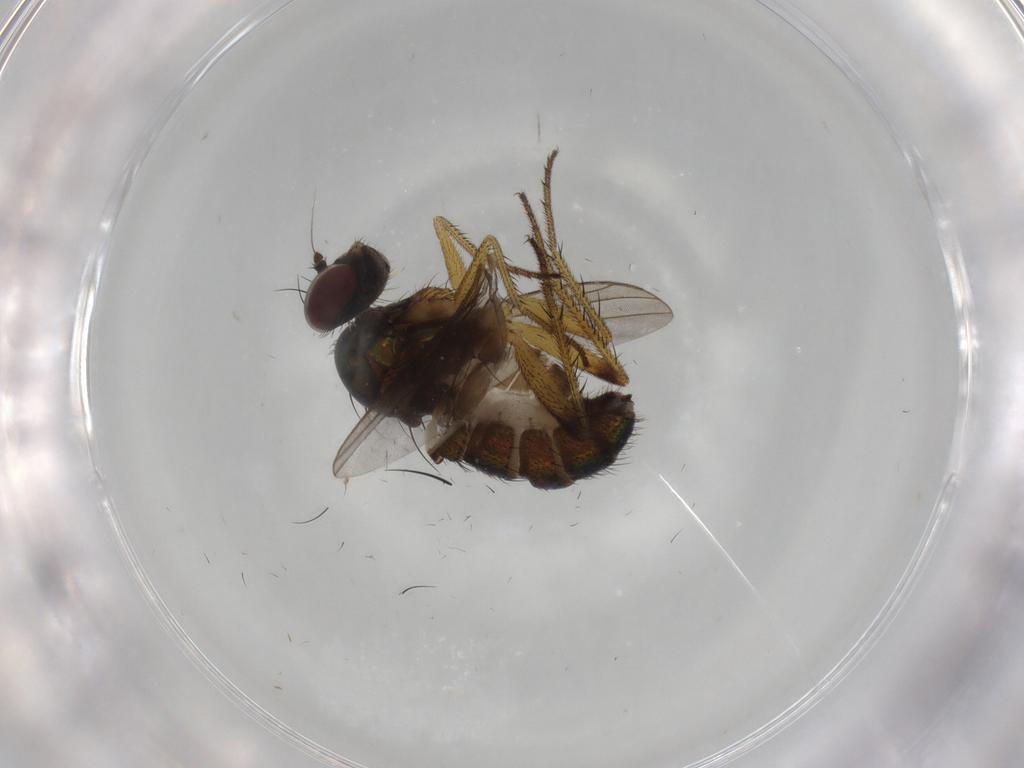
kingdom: Animalia
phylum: Arthropoda
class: Insecta
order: Diptera
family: Dolichopodidae
